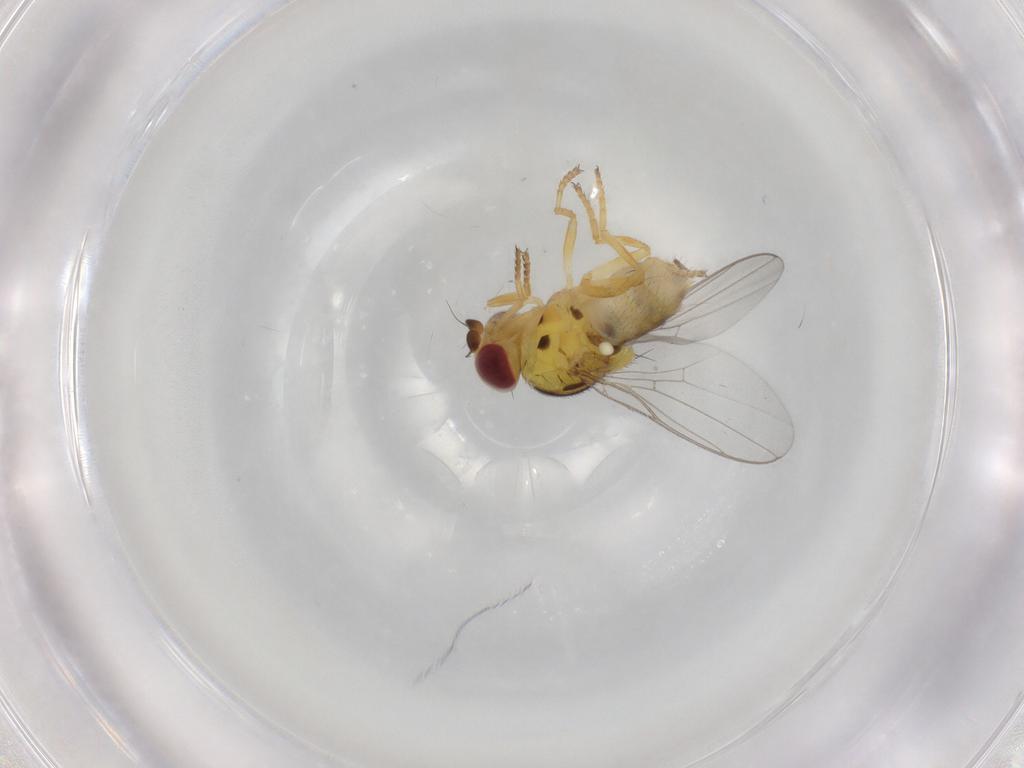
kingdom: Animalia
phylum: Arthropoda
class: Insecta
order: Diptera
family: Chloropidae
